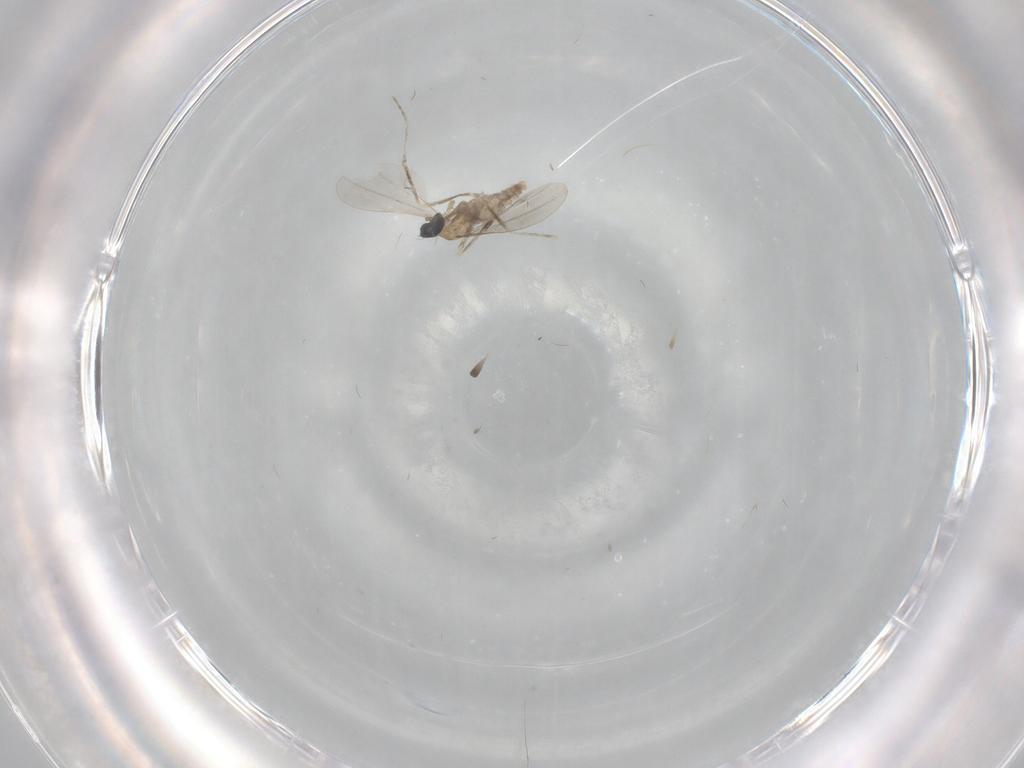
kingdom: Animalia
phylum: Arthropoda
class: Insecta
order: Diptera
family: Cecidomyiidae
